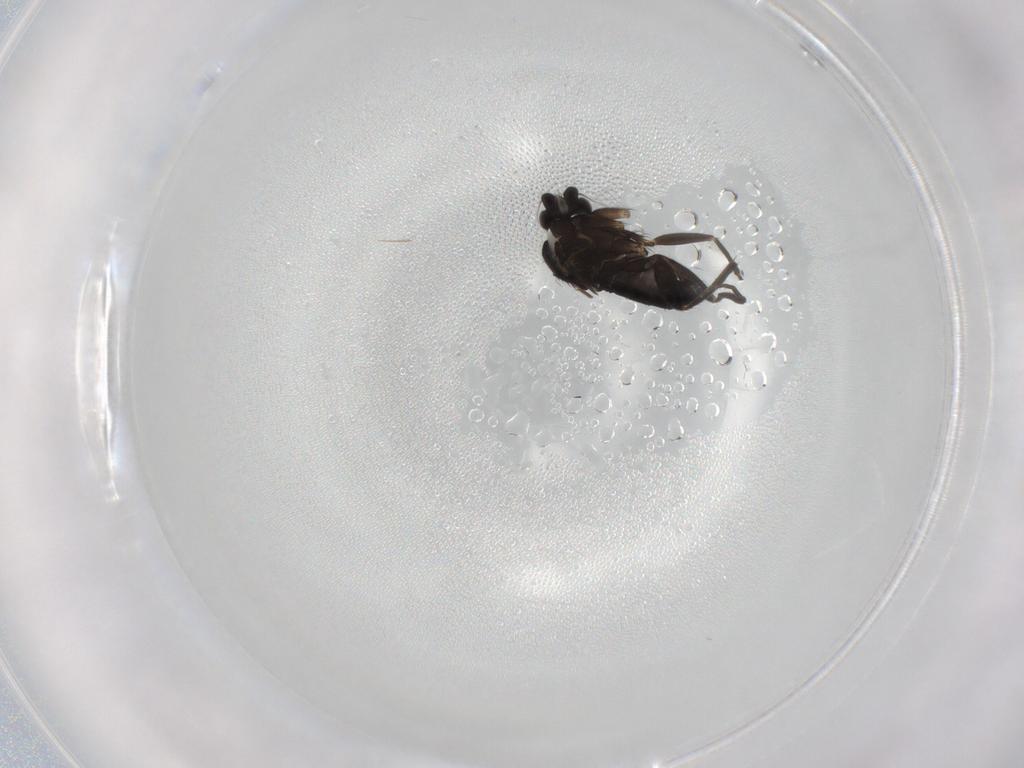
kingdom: Animalia
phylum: Arthropoda
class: Insecta
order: Diptera
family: Phoridae
